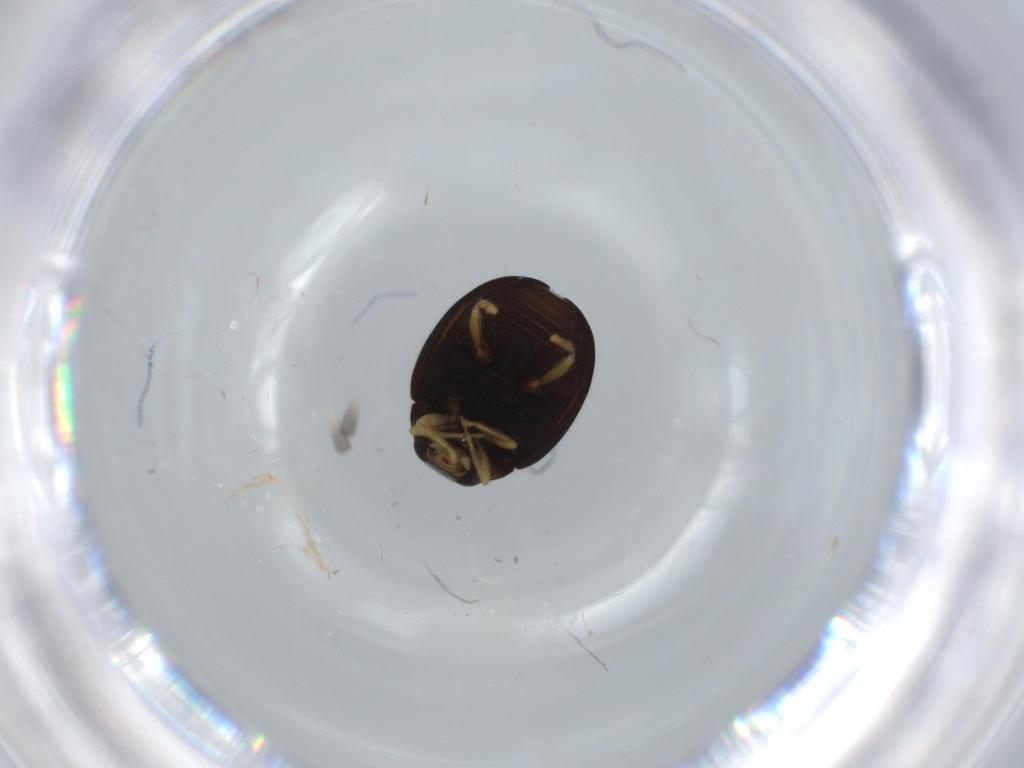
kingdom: Animalia
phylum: Arthropoda
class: Insecta
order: Coleoptera
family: Coccinellidae
